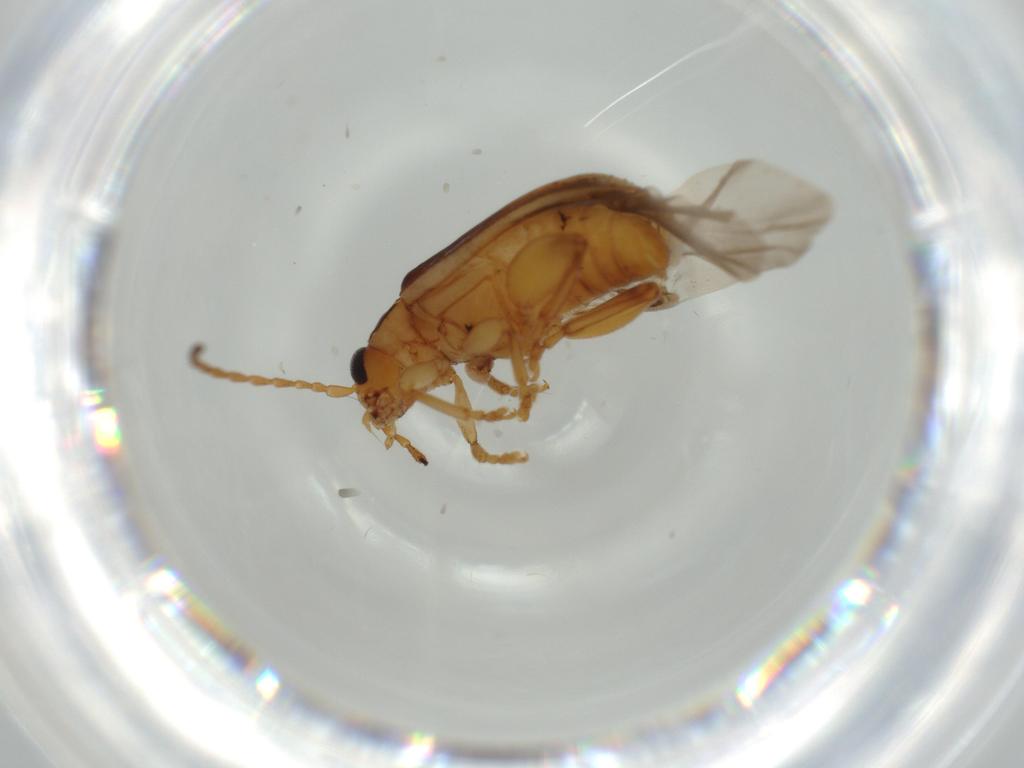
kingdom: Animalia
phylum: Arthropoda
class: Insecta
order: Coleoptera
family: Chrysomelidae
